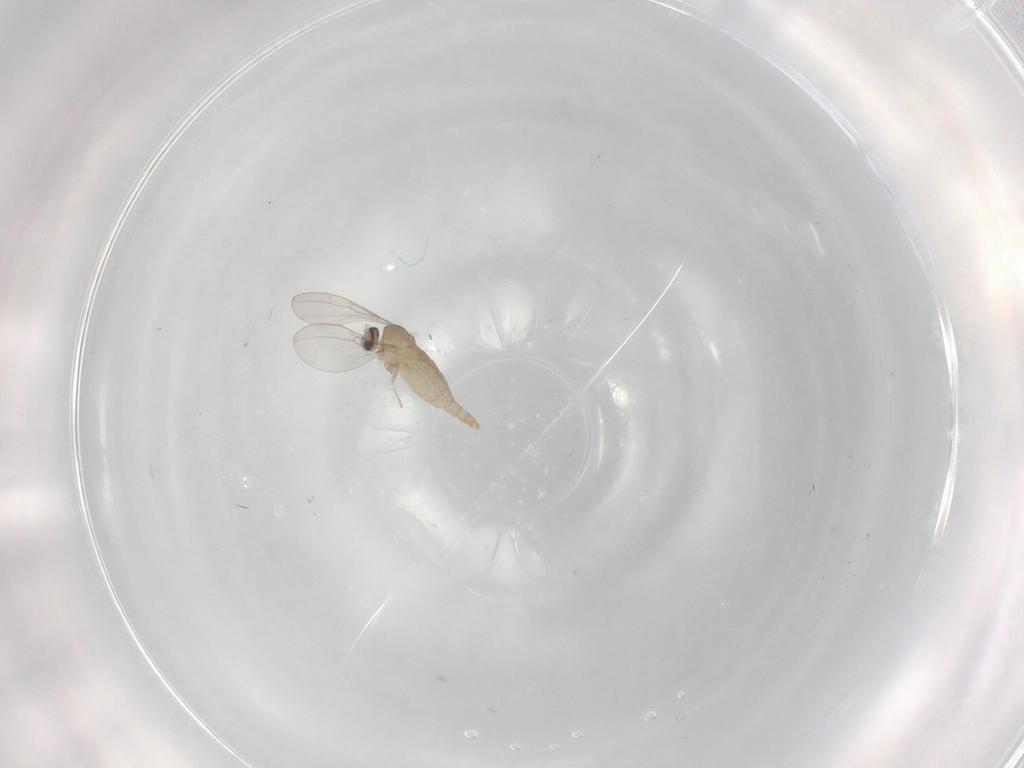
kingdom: Animalia
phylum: Arthropoda
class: Insecta
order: Diptera
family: Cecidomyiidae
